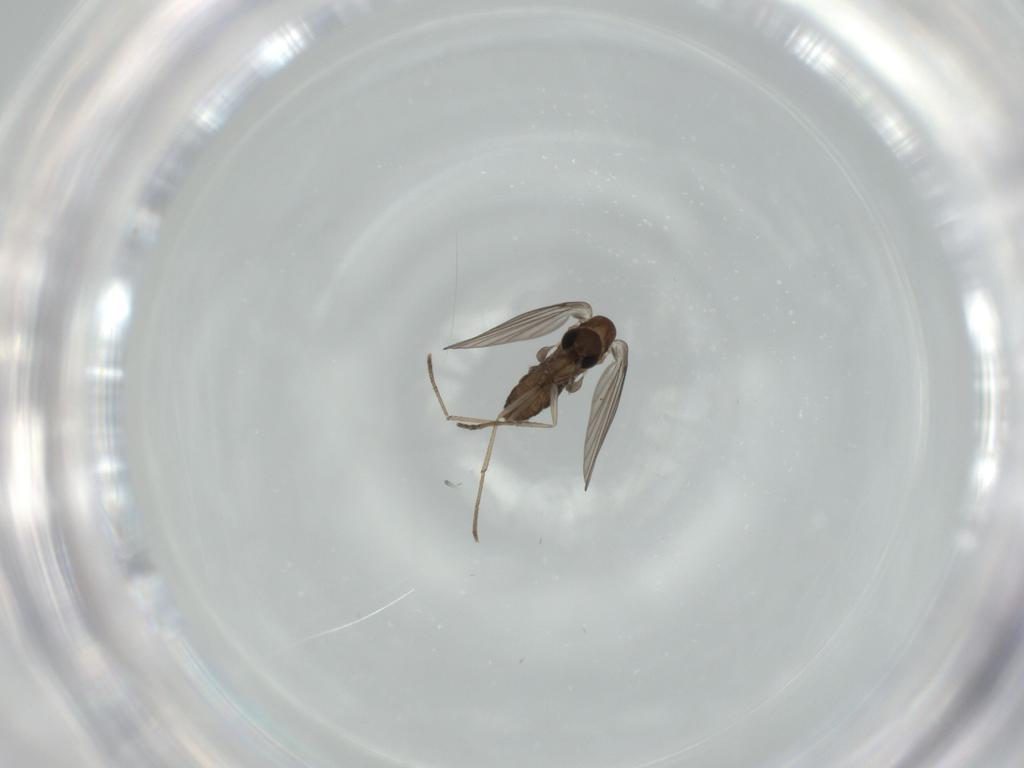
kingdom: Animalia
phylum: Arthropoda
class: Insecta
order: Diptera
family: Psychodidae
